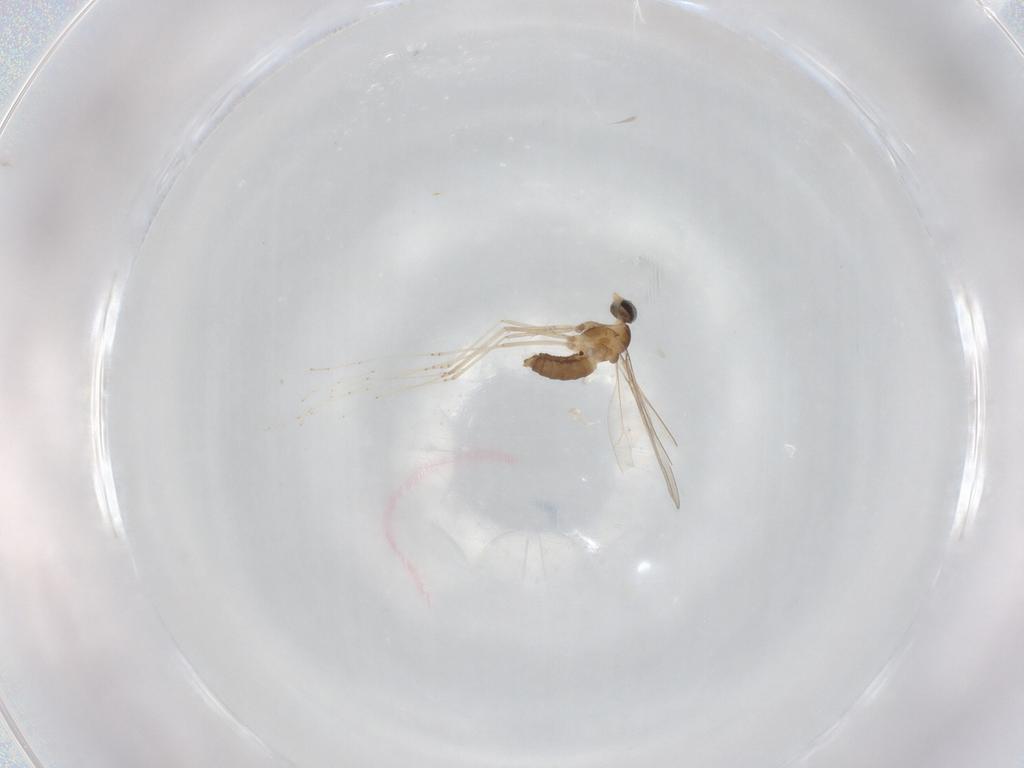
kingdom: Animalia
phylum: Arthropoda
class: Insecta
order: Diptera
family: Cecidomyiidae
